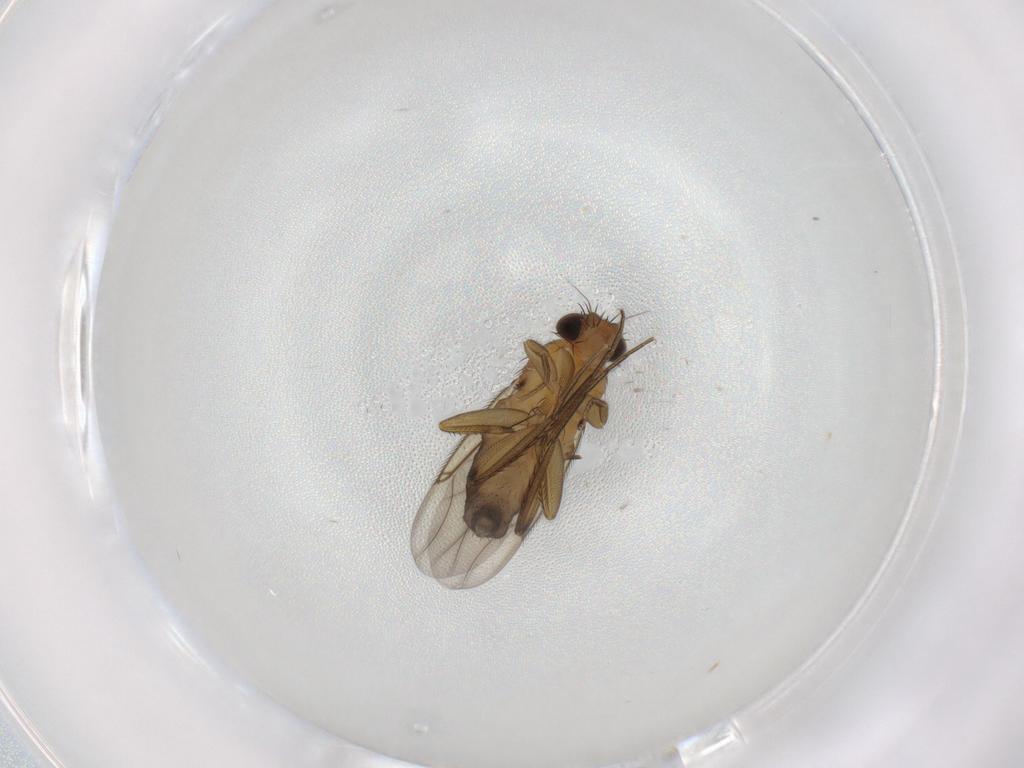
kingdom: Animalia
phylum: Arthropoda
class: Insecta
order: Diptera
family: Phoridae
